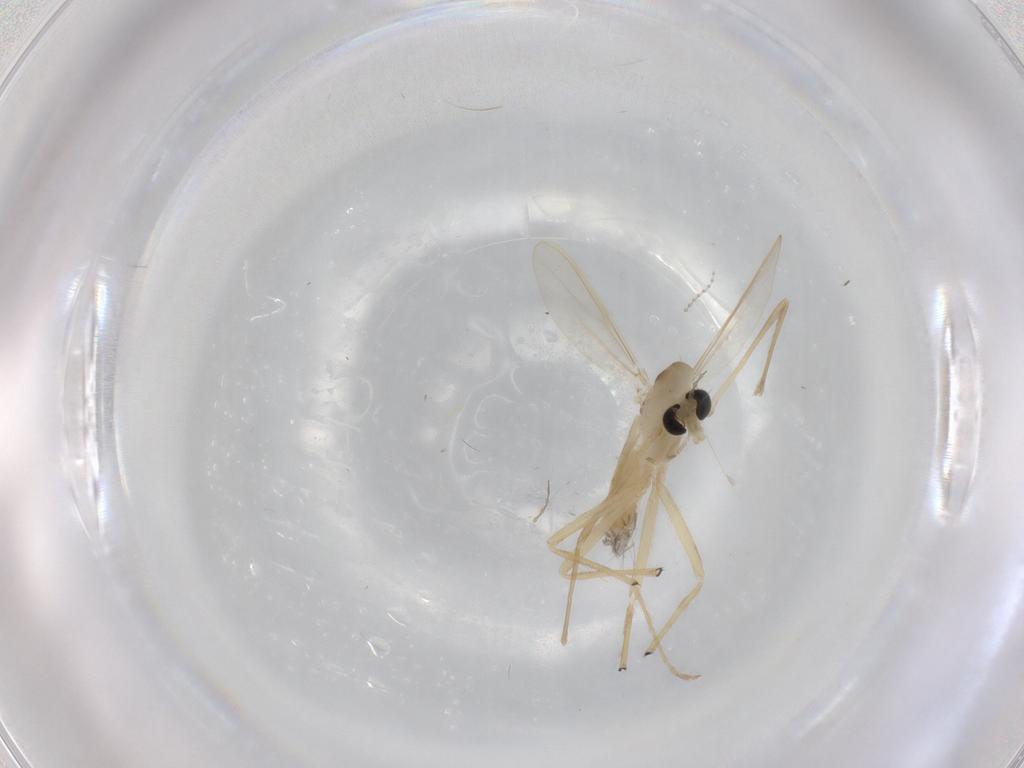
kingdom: Animalia
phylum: Arthropoda
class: Insecta
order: Diptera
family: Chironomidae
